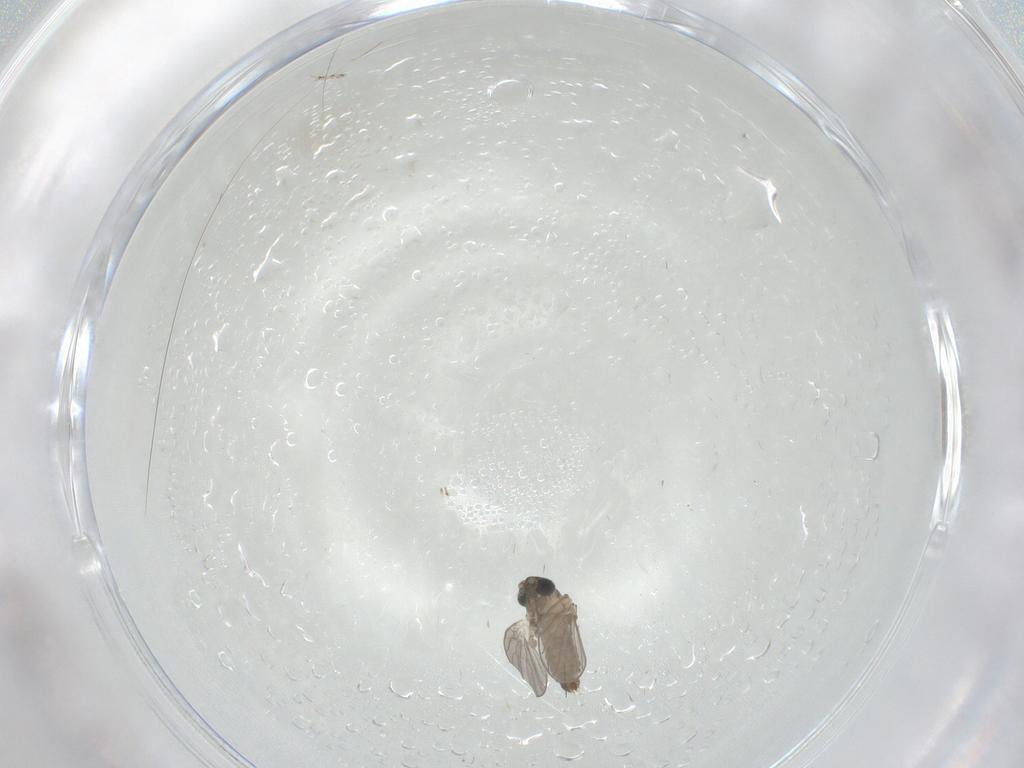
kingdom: Animalia
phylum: Arthropoda
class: Insecta
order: Diptera
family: Psychodidae
